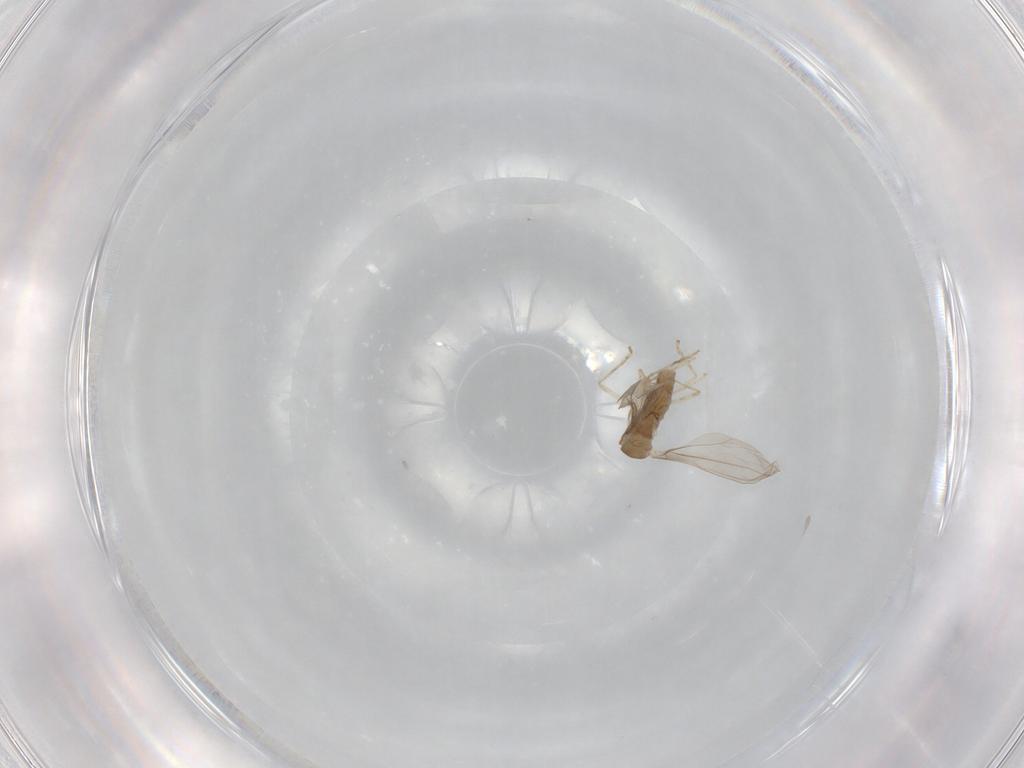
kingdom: Animalia
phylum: Arthropoda
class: Insecta
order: Diptera
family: Cecidomyiidae
